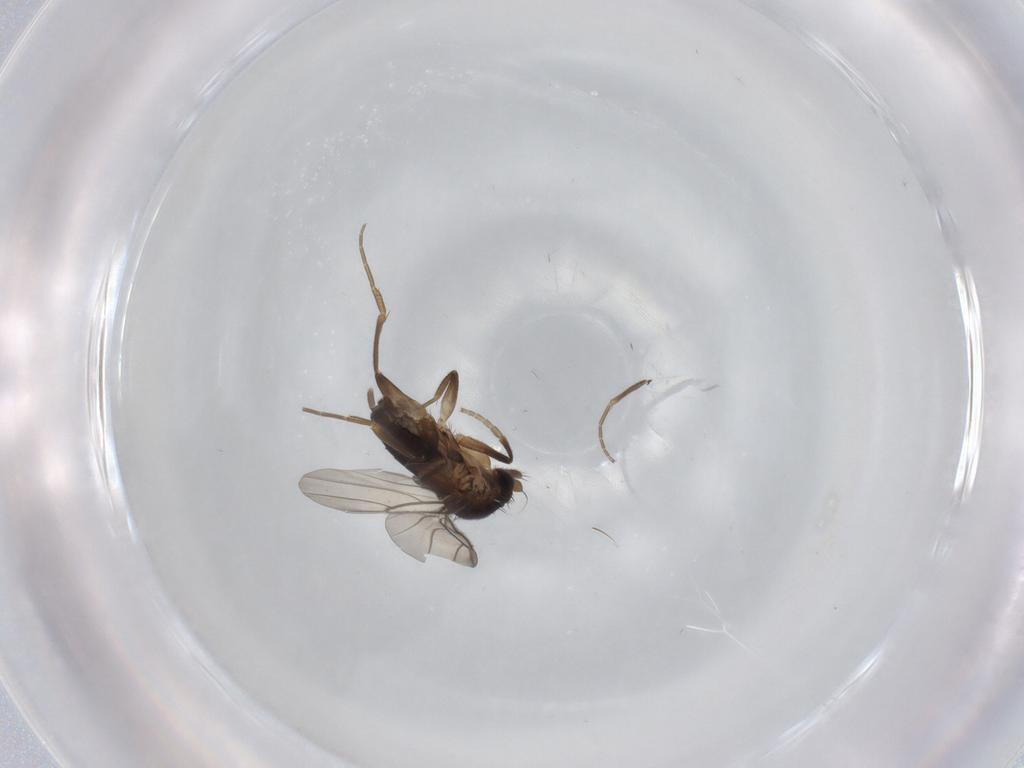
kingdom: Animalia
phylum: Arthropoda
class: Insecta
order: Diptera
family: Phoridae
